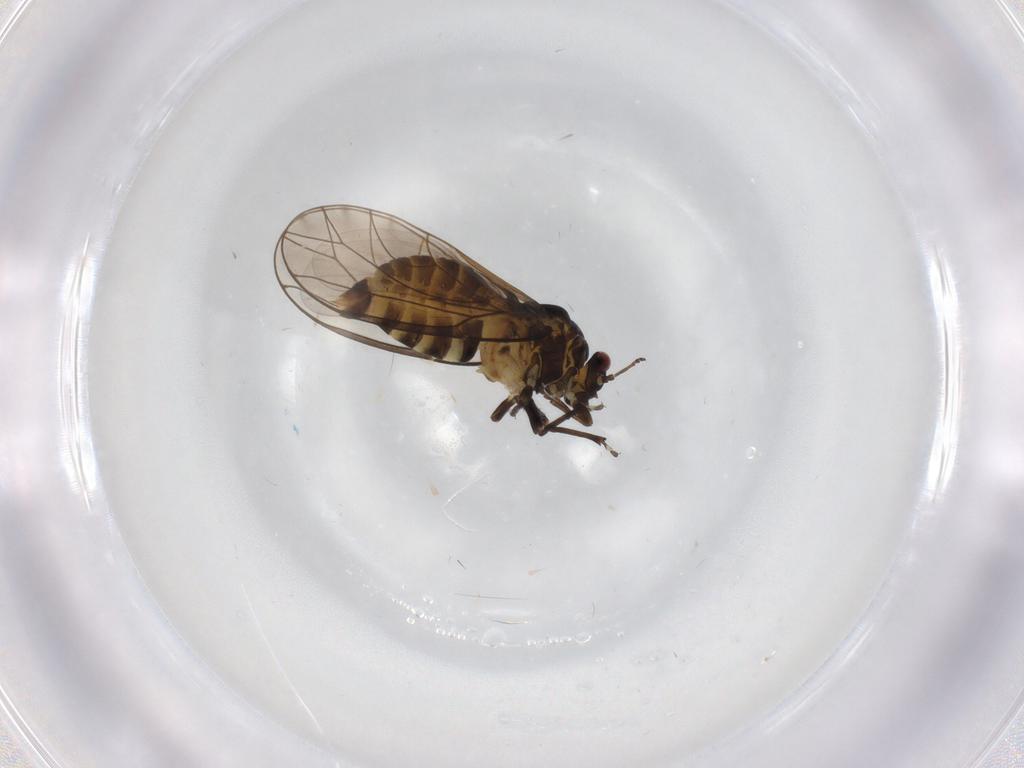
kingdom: Animalia
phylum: Arthropoda
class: Insecta
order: Hemiptera
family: Psylloidea_incertae_sedis
